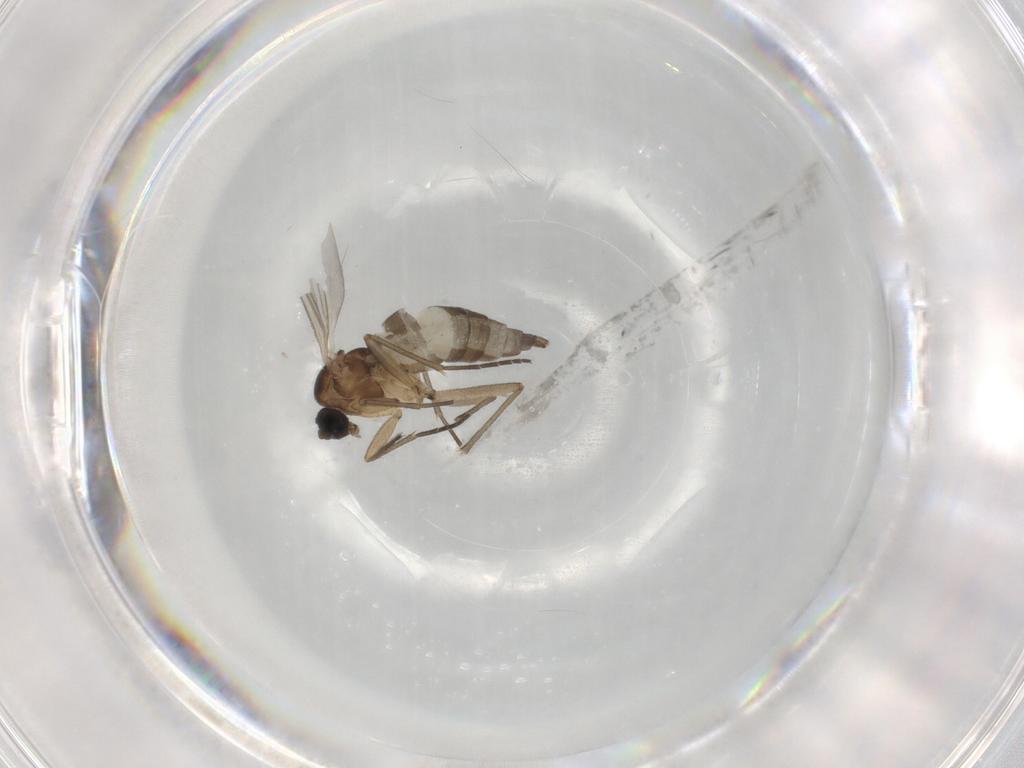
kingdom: Animalia
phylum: Arthropoda
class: Insecta
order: Diptera
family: Sciaridae
